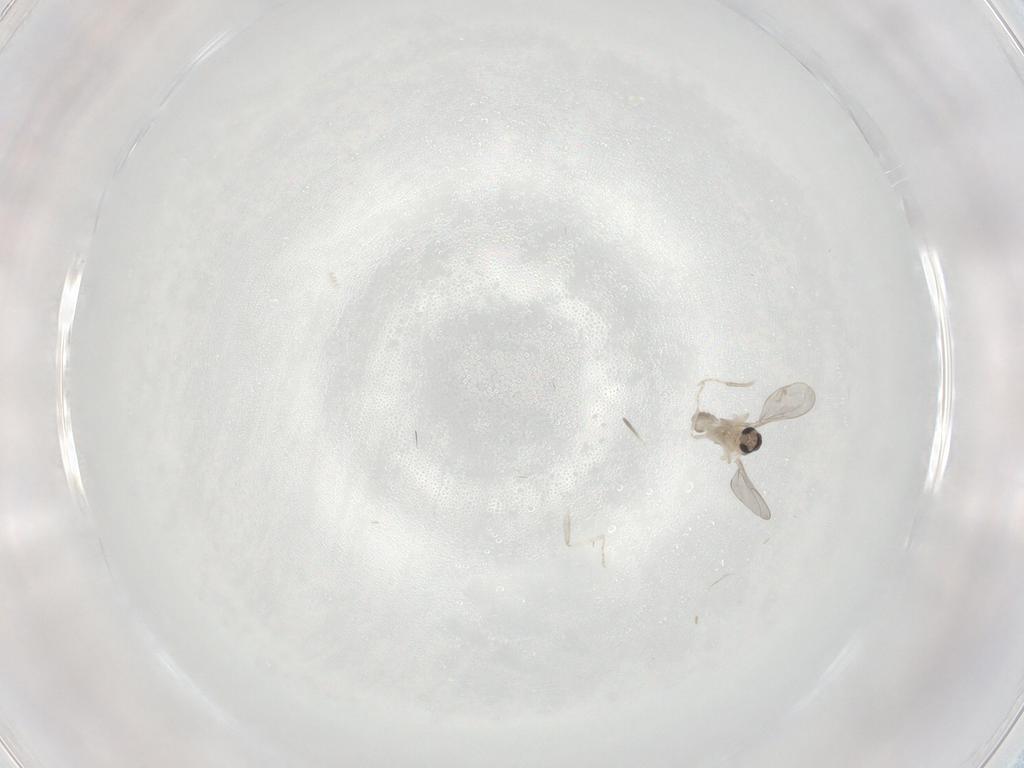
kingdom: Animalia
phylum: Arthropoda
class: Insecta
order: Diptera
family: Cecidomyiidae
